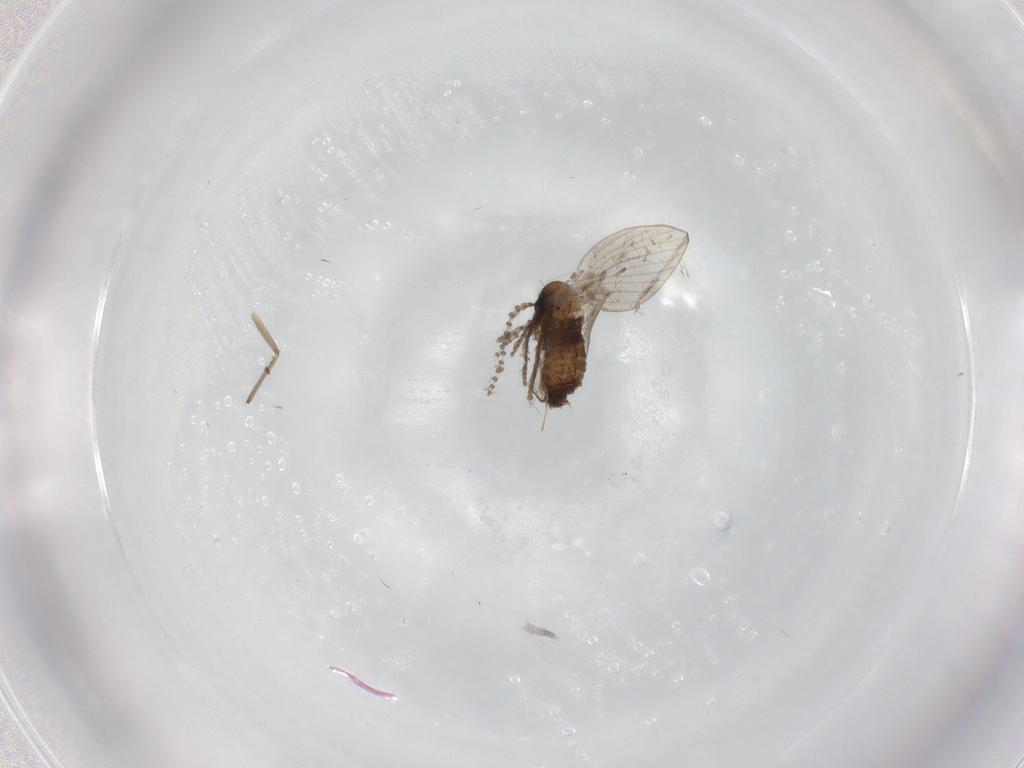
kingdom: Animalia
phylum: Arthropoda
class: Insecta
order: Diptera
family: Psychodidae
